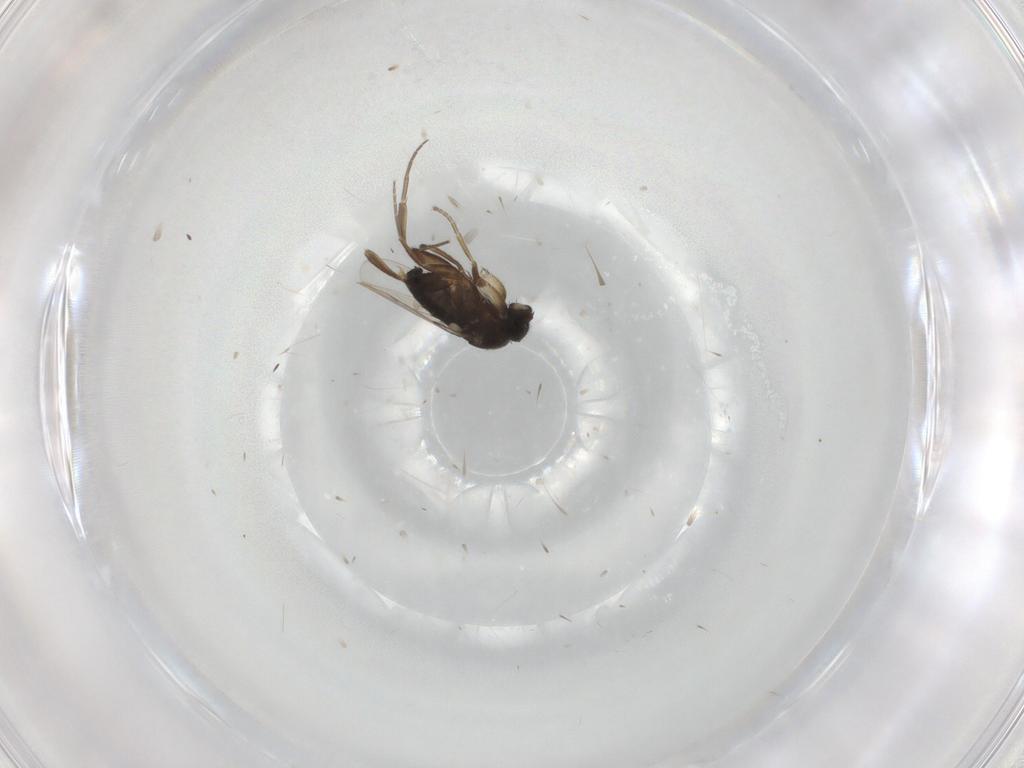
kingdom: Animalia
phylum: Arthropoda
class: Insecta
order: Diptera
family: Phoridae
